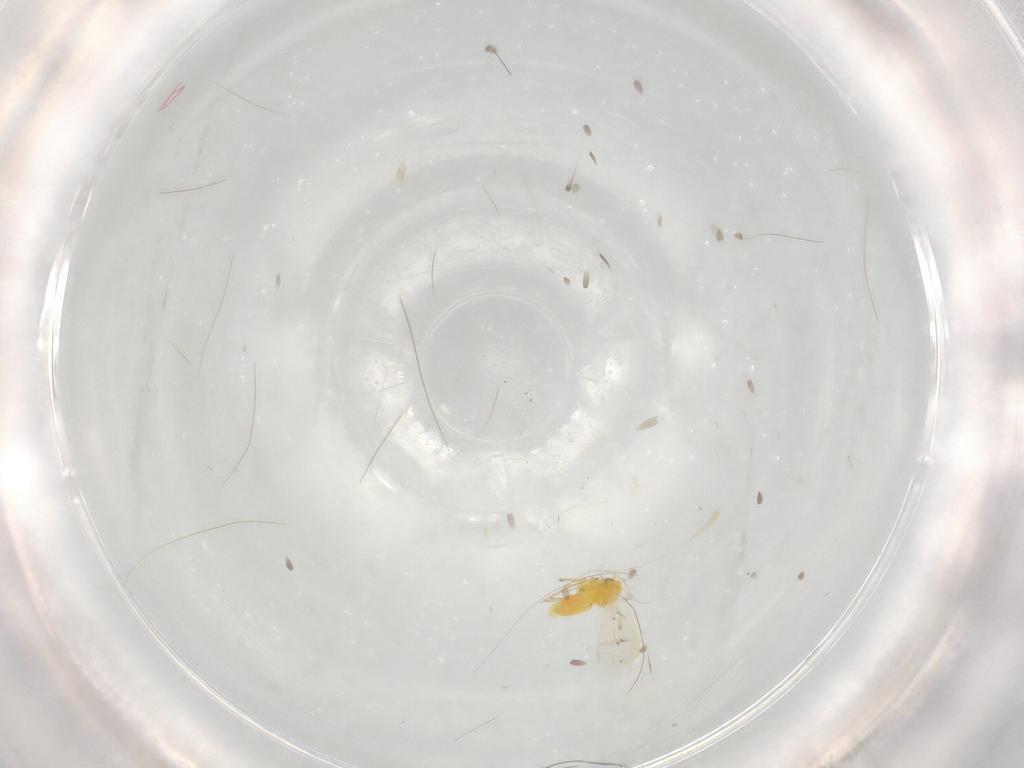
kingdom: Animalia
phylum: Arthropoda
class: Insecta
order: Hemiptera
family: Aleyrodidae
